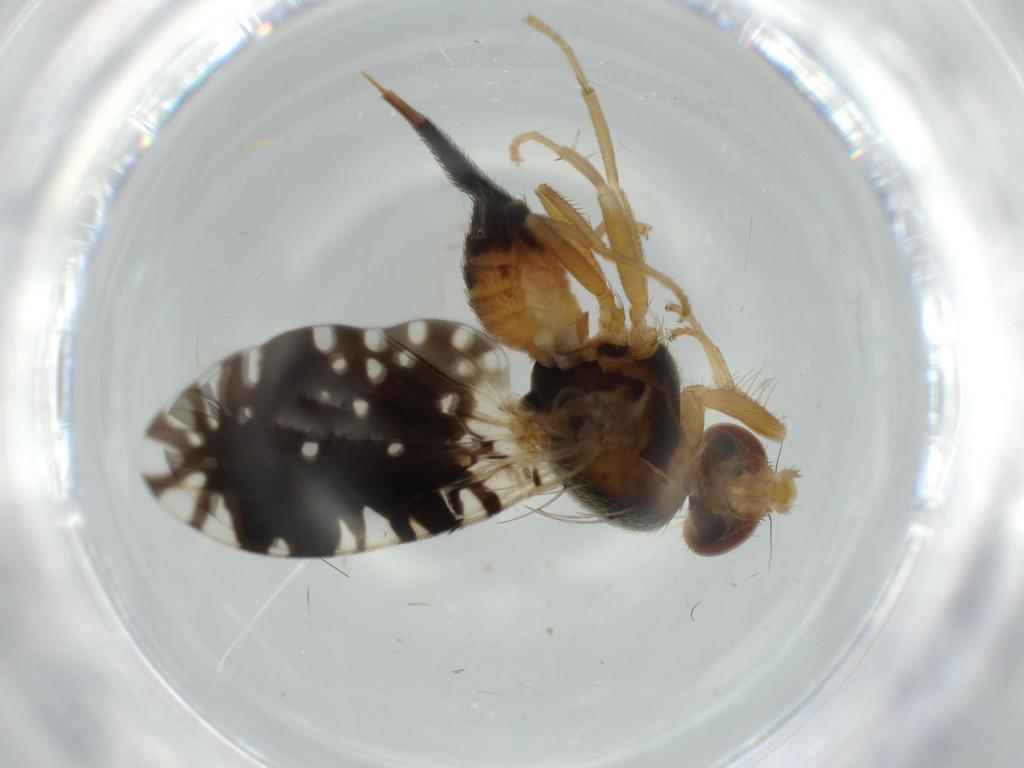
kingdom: Animalia
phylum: Arthropoda
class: Insecta
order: Diptera
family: Tephritidae
